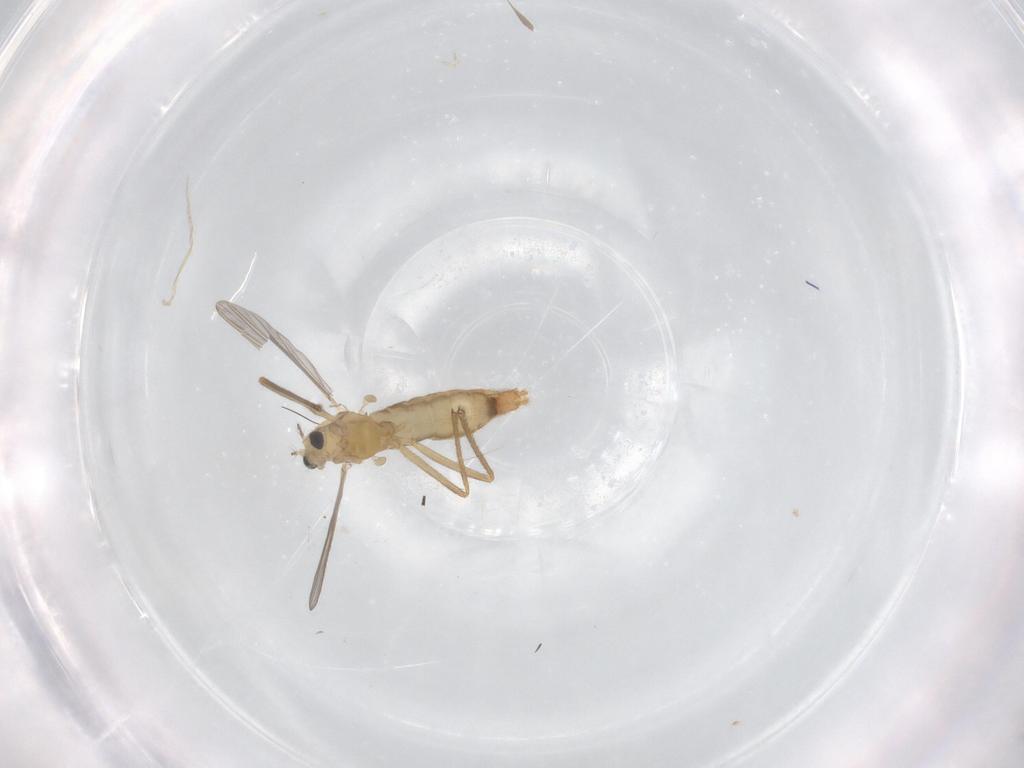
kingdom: Animalia
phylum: Arthropoda
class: Insecta
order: Diptera
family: Chironomidae
